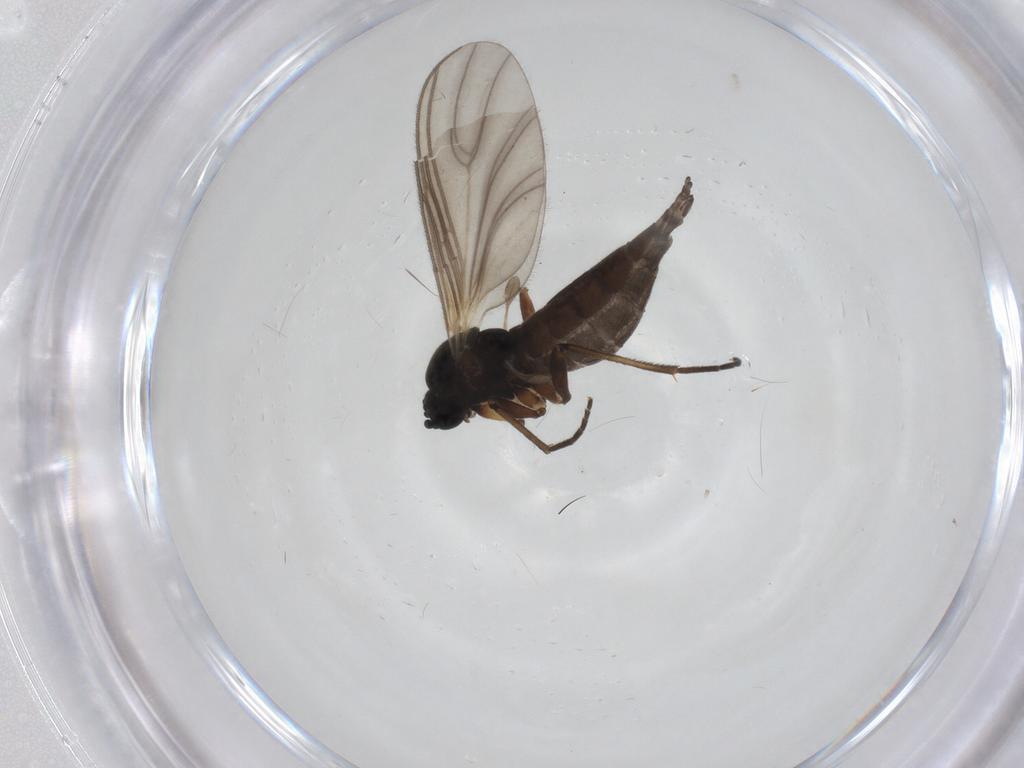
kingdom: Animalia
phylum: Arthropoda
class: Insecta
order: Diptera
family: Sciaridae
